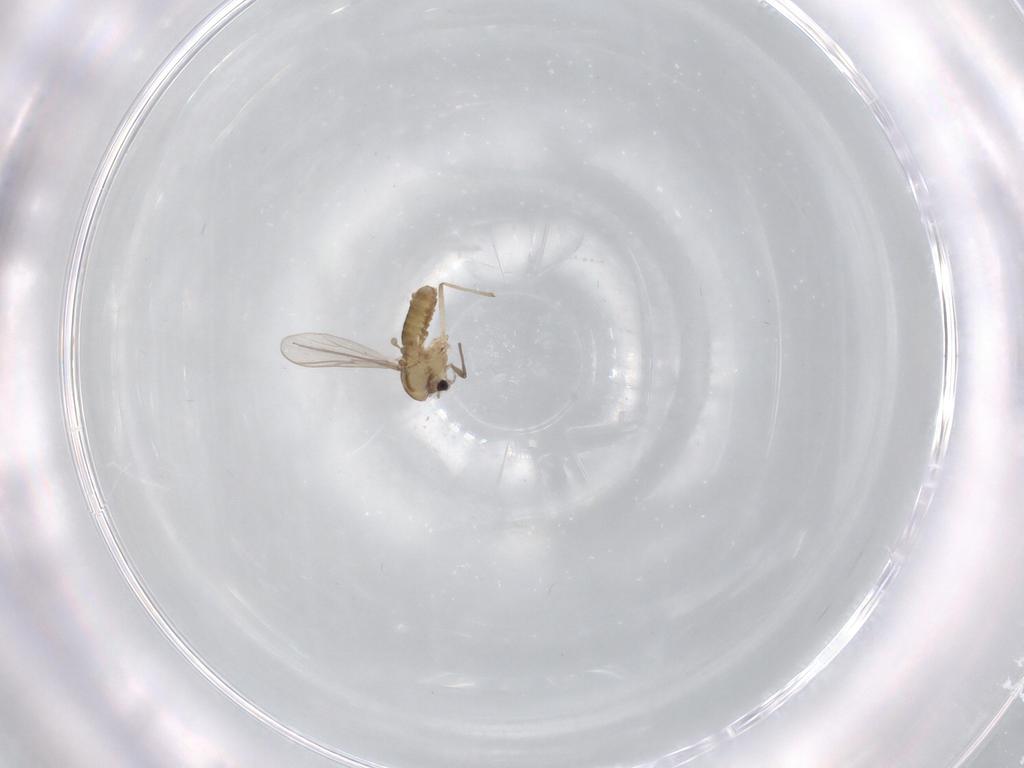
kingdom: Animalia
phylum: Arthropoda
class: Insecta
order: Diptera
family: Chironomidae
